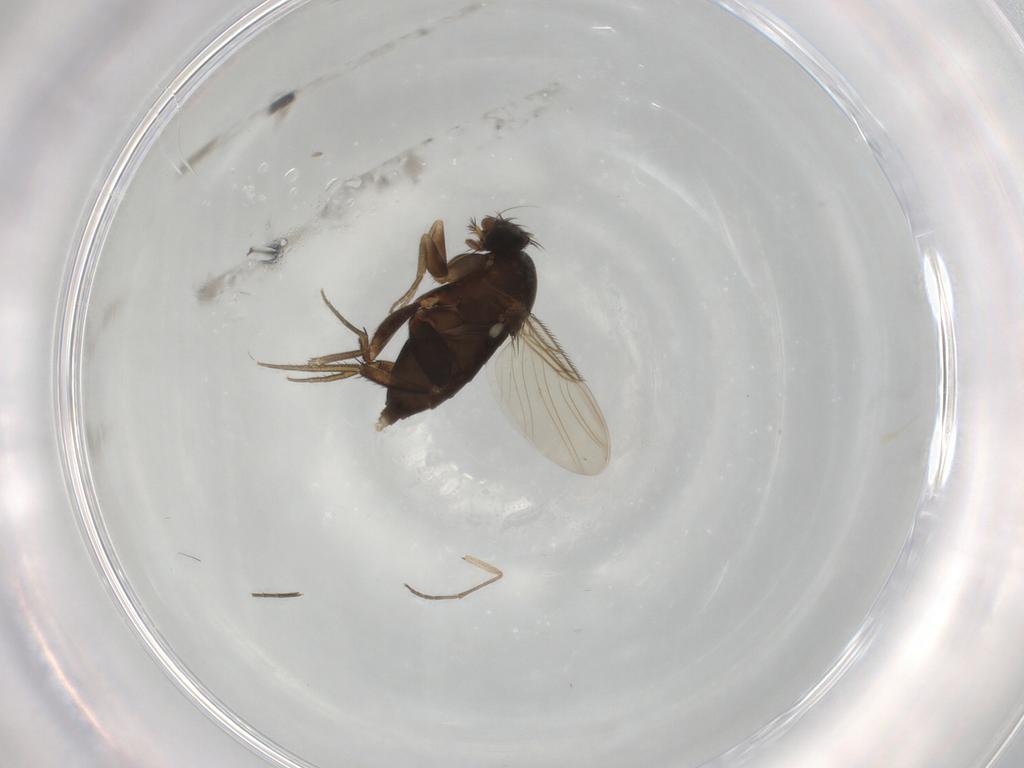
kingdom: Animalia
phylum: Arthropoda
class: Insecta
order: Diptera
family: Phoridae
